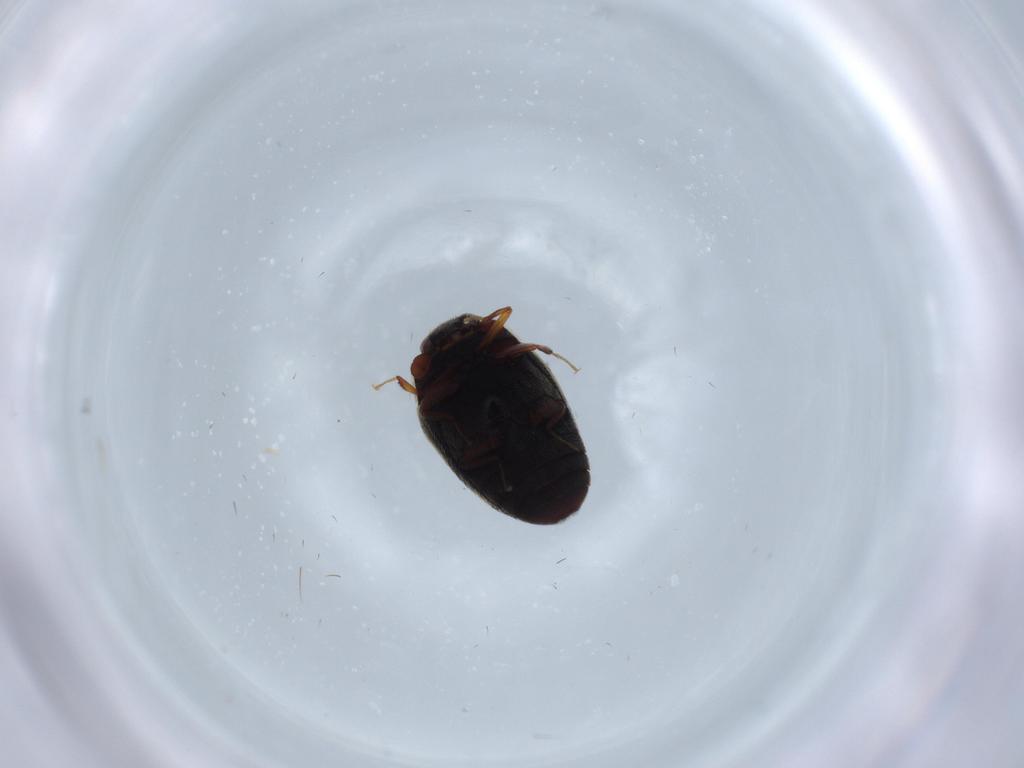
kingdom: Animalia
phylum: Arthropoda
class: Insecta
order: Coleoptera
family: Dermestidae
